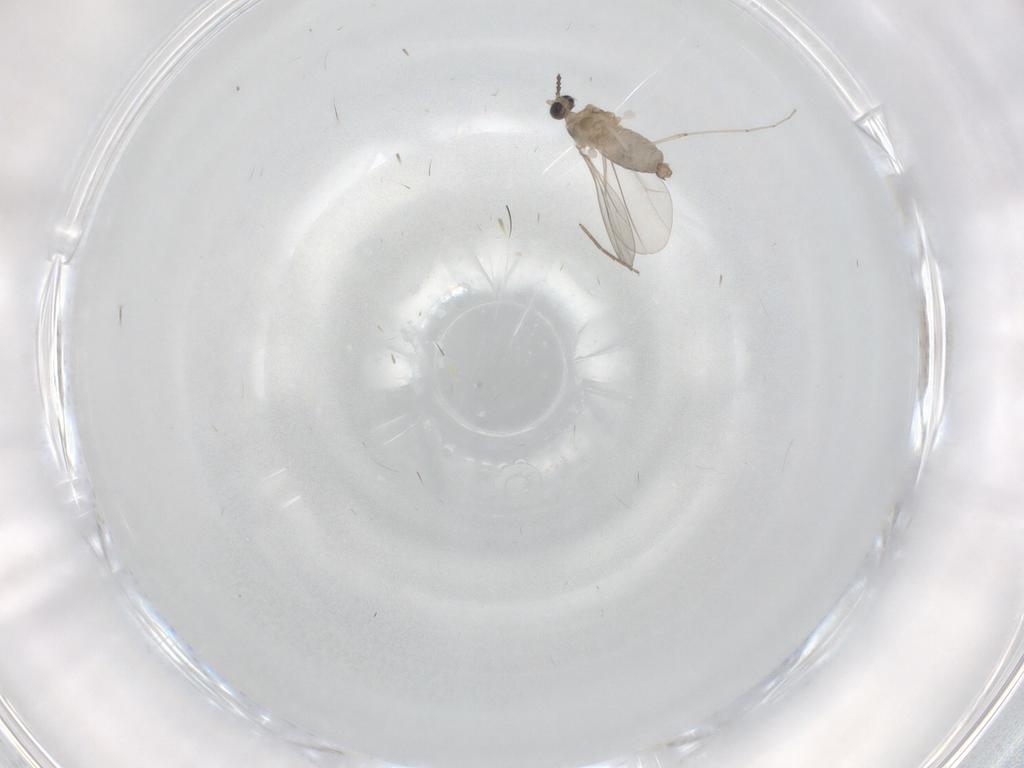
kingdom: Animalia
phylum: Arthropoda
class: Insecta
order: Diptera
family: Cecidomyiidae
